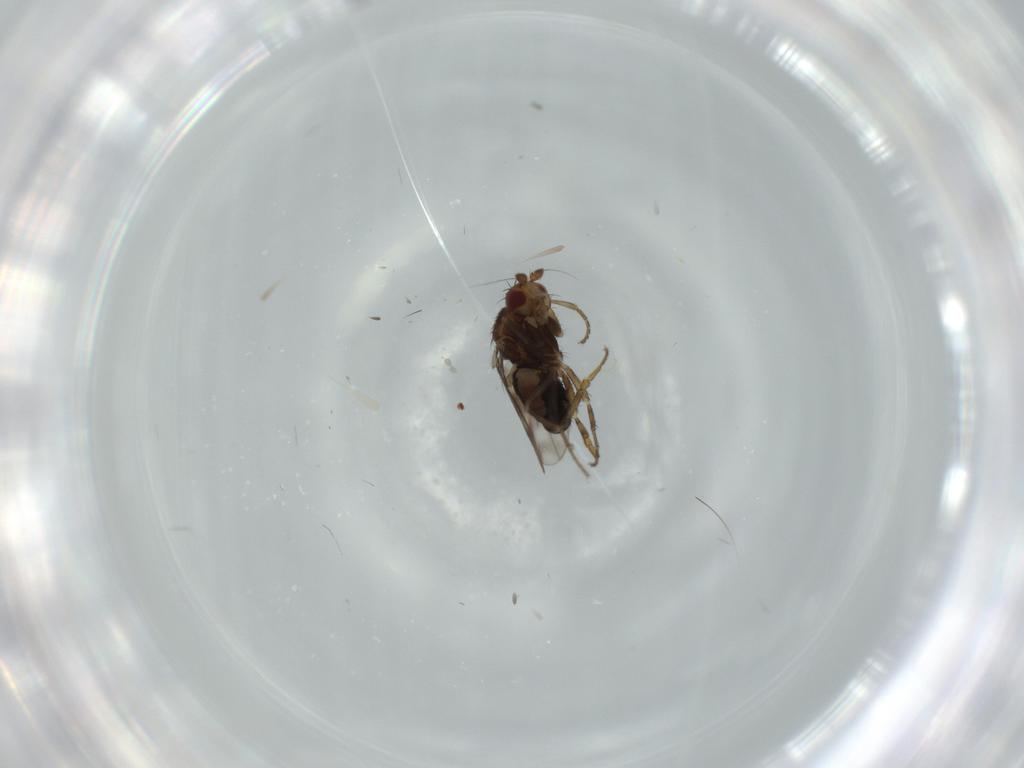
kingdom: Animalia
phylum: Arthropoda
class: Insecta
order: Diptera
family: Sphaeroceridae
